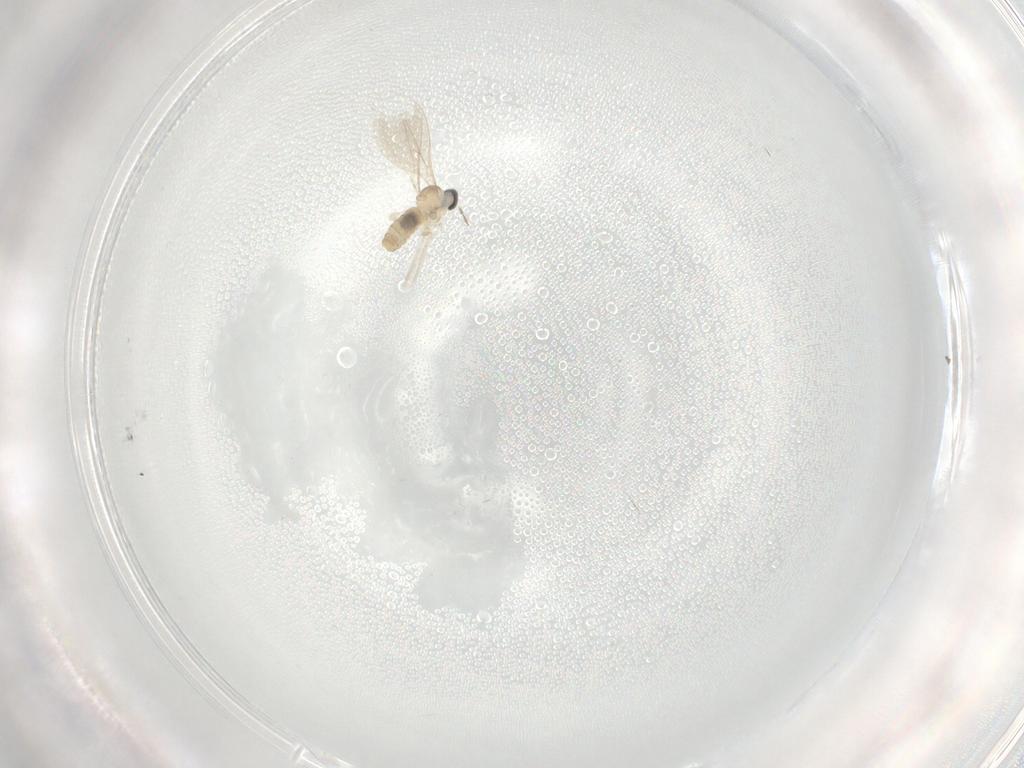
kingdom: Animalia
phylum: Arthropoda
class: Insecta
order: Diptera
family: Cecidomyiidae
